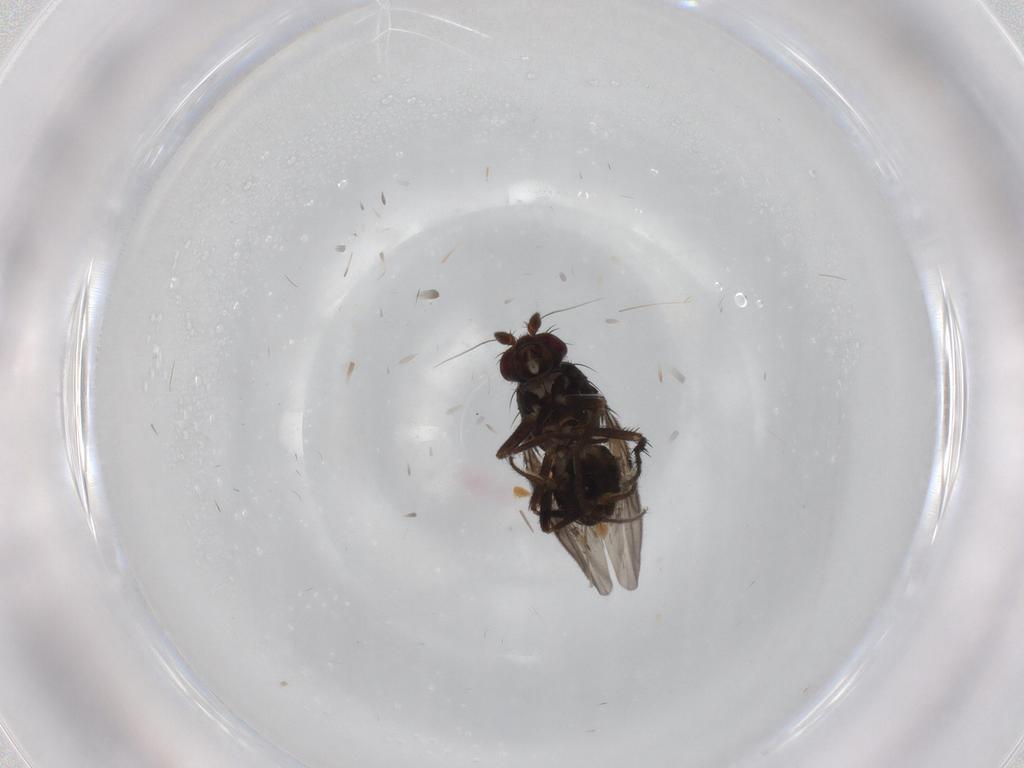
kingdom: Animalia
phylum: Arthropoda
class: Insecta
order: Diptera
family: Sphaeroceridae
